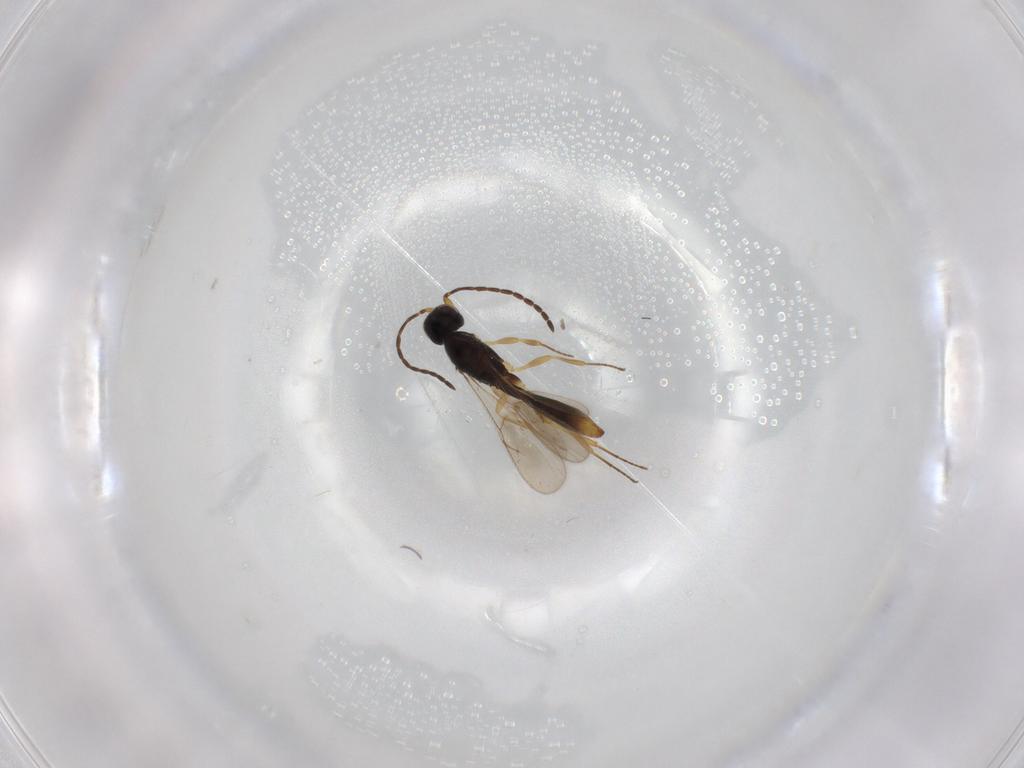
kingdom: Animalia
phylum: Arthropoda
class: Insecta
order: Hymenoptera
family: Scelionidae
